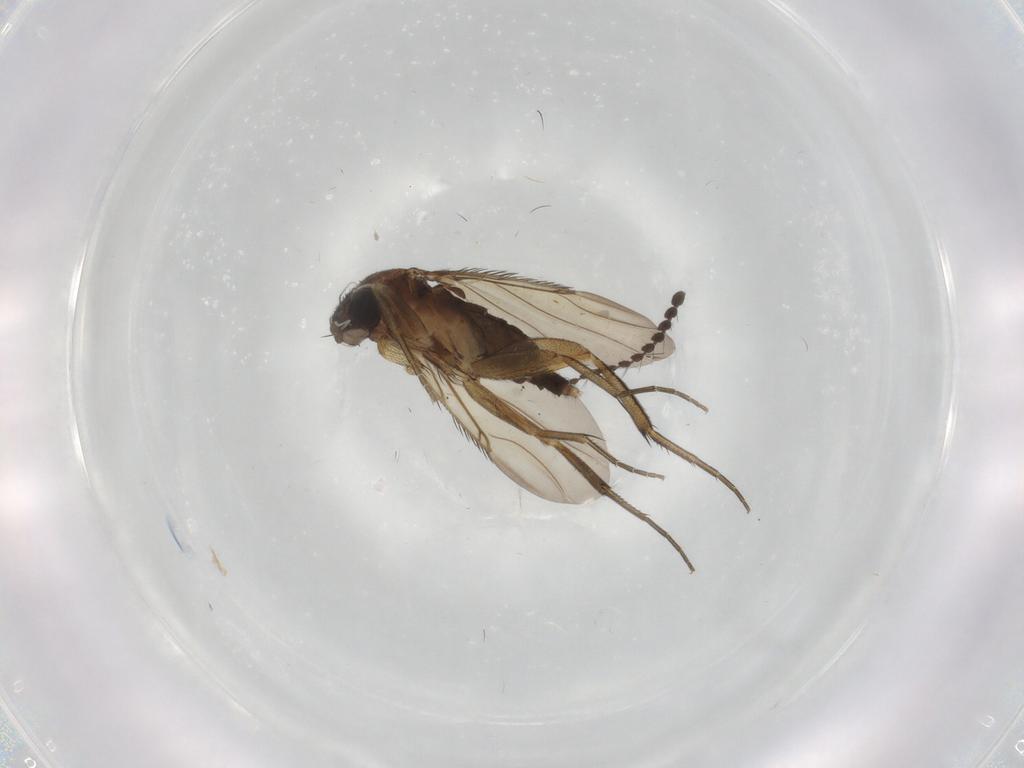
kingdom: Animalia
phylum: Arthropoda
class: Insecta
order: Diptera
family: Phoridae
